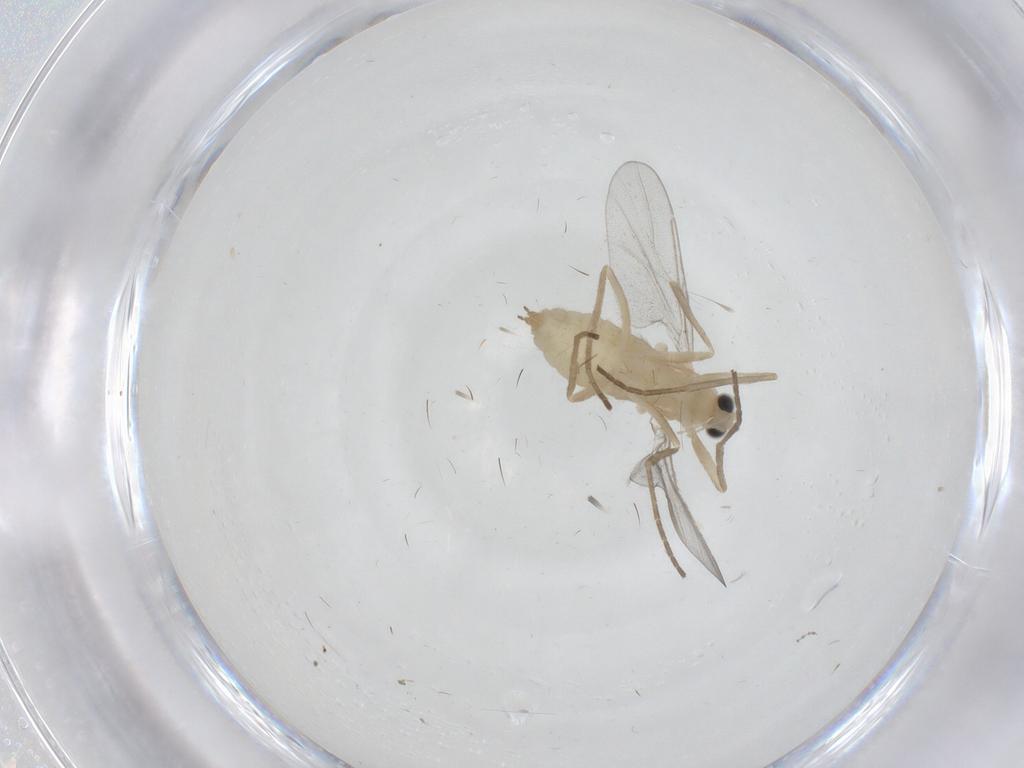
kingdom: Animalia
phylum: Arthropoda
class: Insecta
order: Diptera
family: Cecidomyiidae
